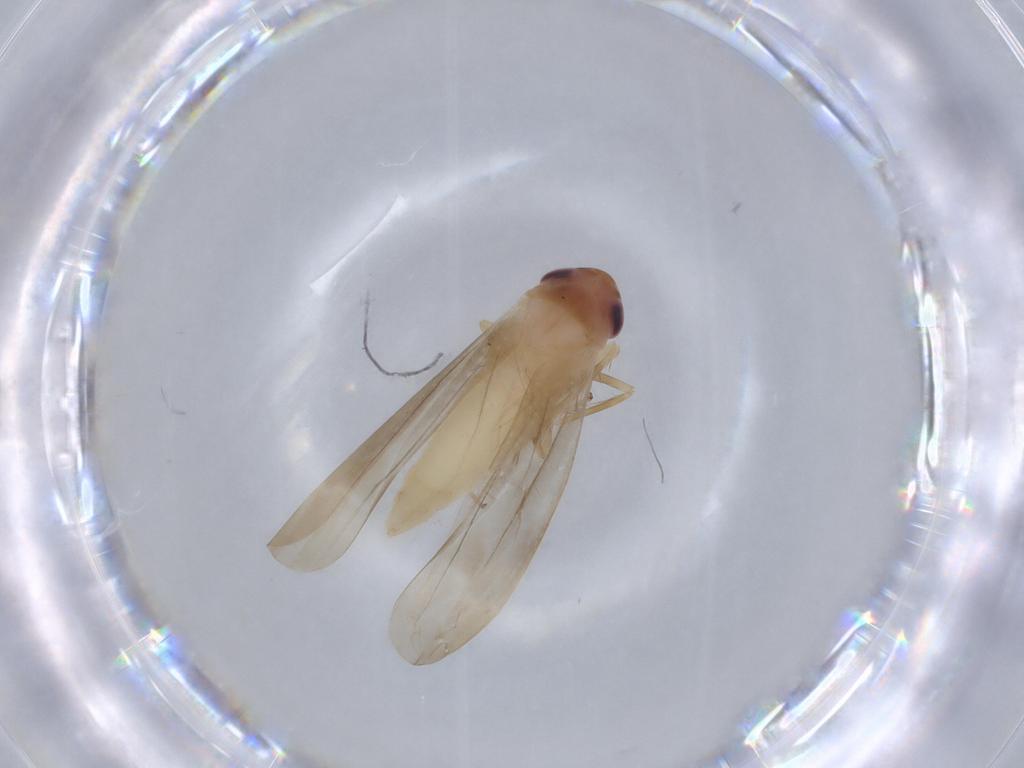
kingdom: Animalia
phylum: Arthropoda
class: Insecta
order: Hemiptera
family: Cicadellidae
